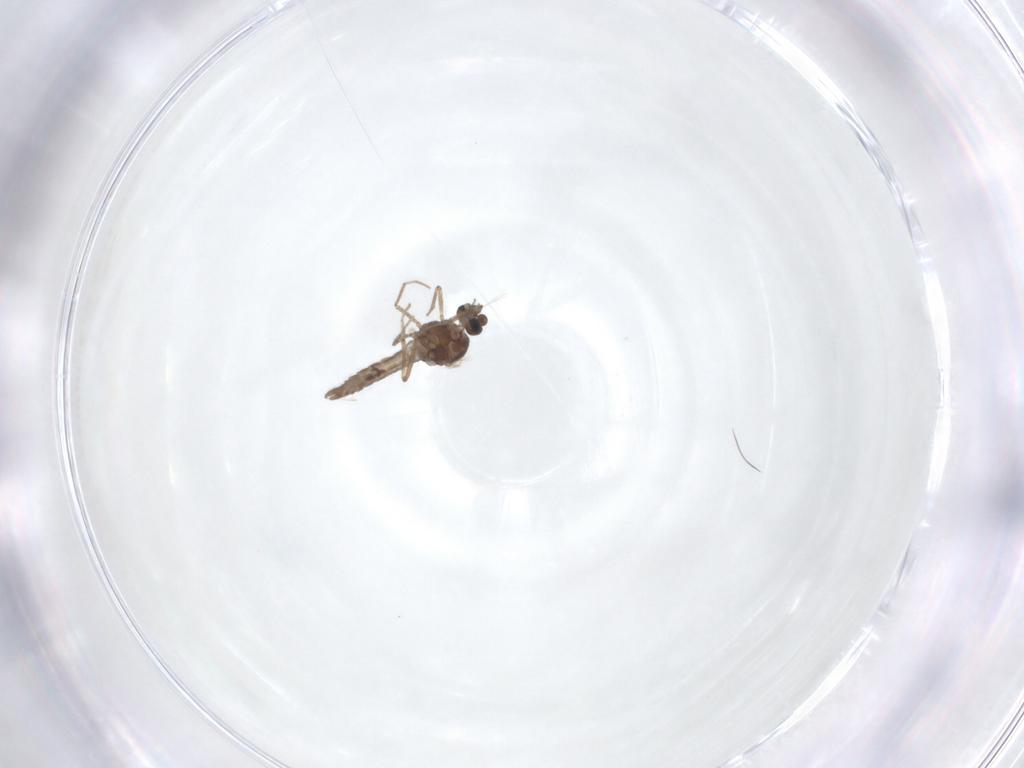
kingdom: Animalia
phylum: Arthropoda
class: Insecta
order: Diptera
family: Ceratopogonidae
